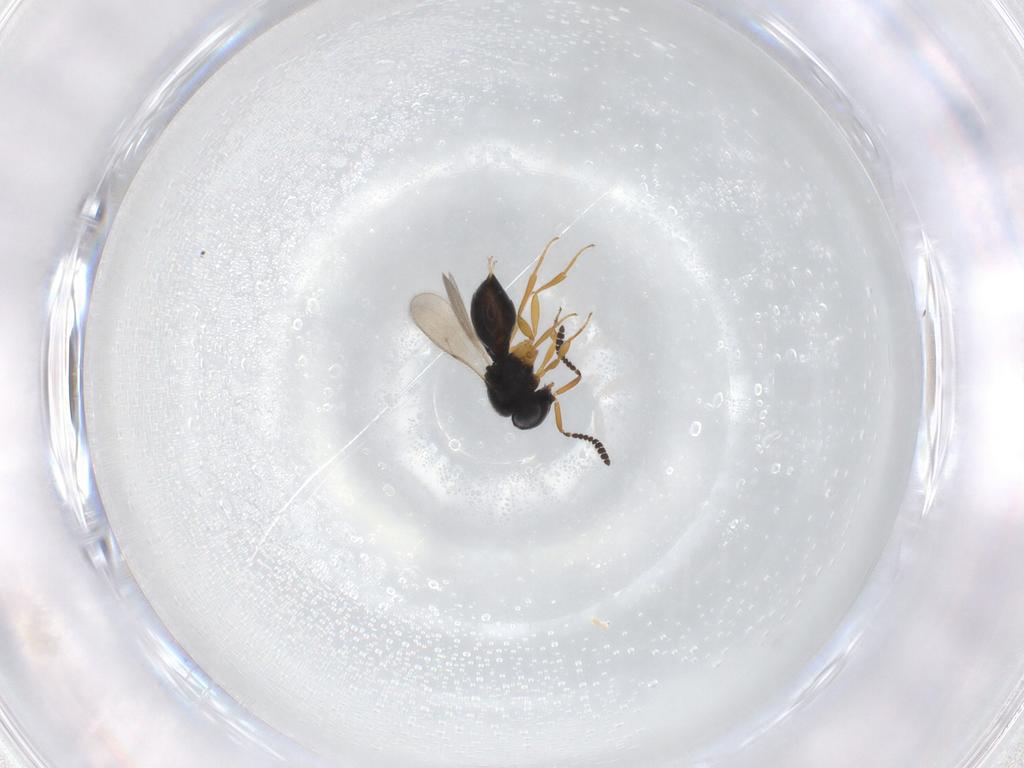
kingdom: Animalia
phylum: Arthropoda
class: Insecta
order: Hymenoptera
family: Scelionidae
